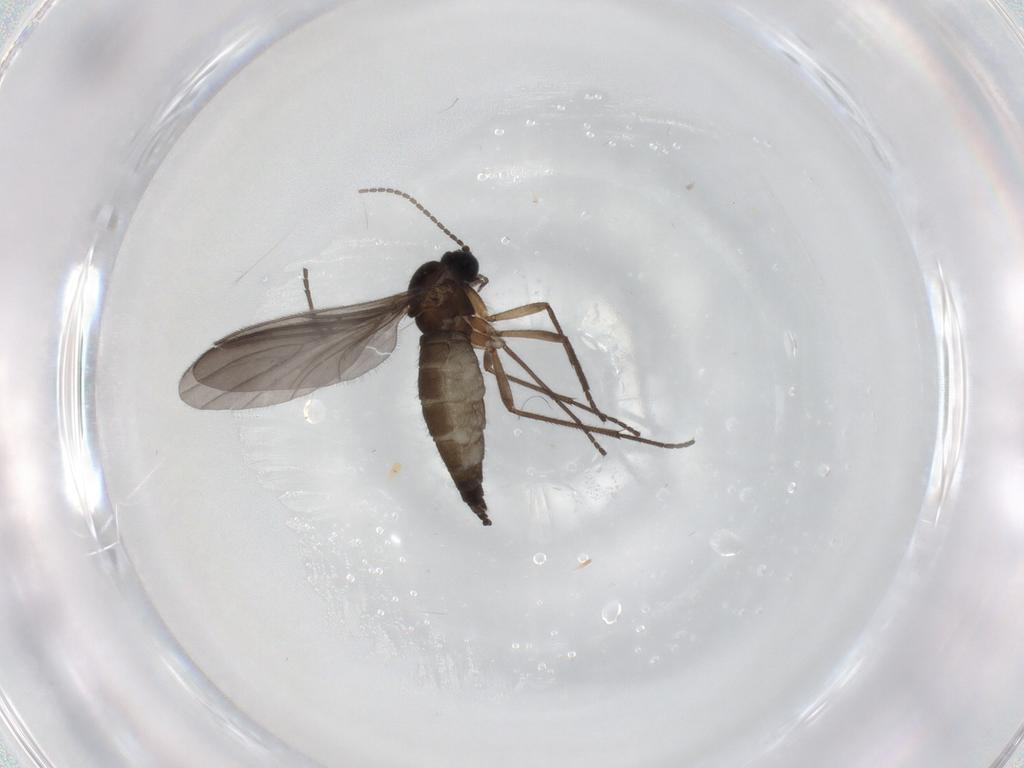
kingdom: Animalia
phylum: Arthropoda
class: Insecta
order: Diptera
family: Sciaridae
